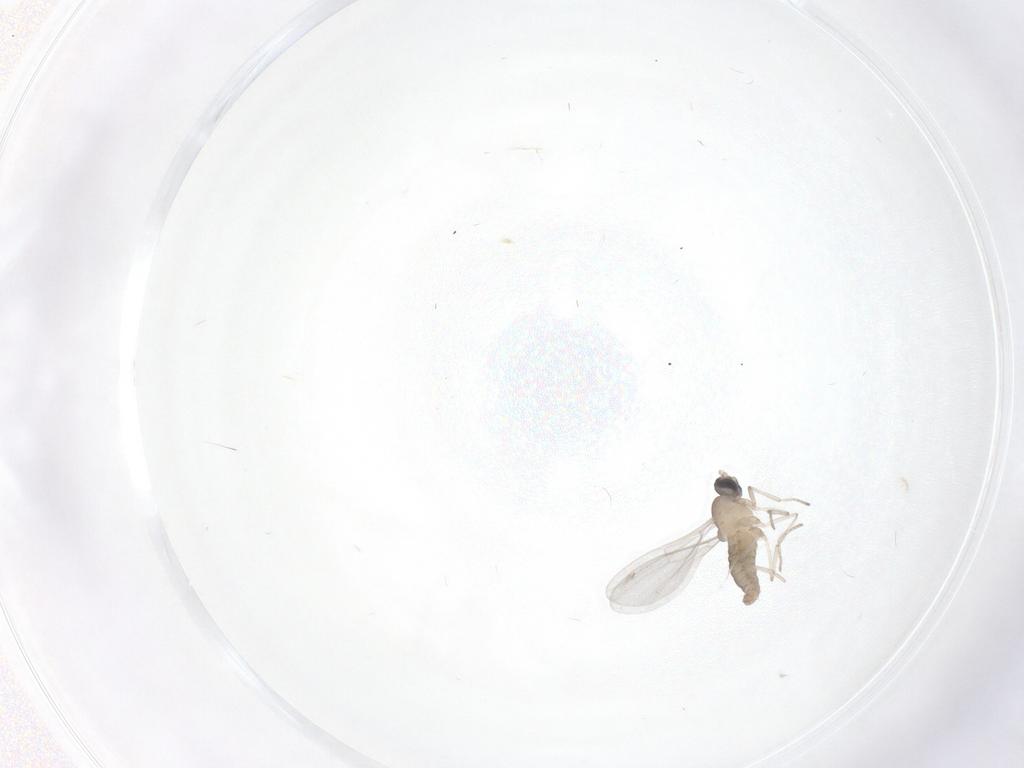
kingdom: Animalia
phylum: Arthropoda
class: Insecta
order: Diptera
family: Cecidomyiidae
